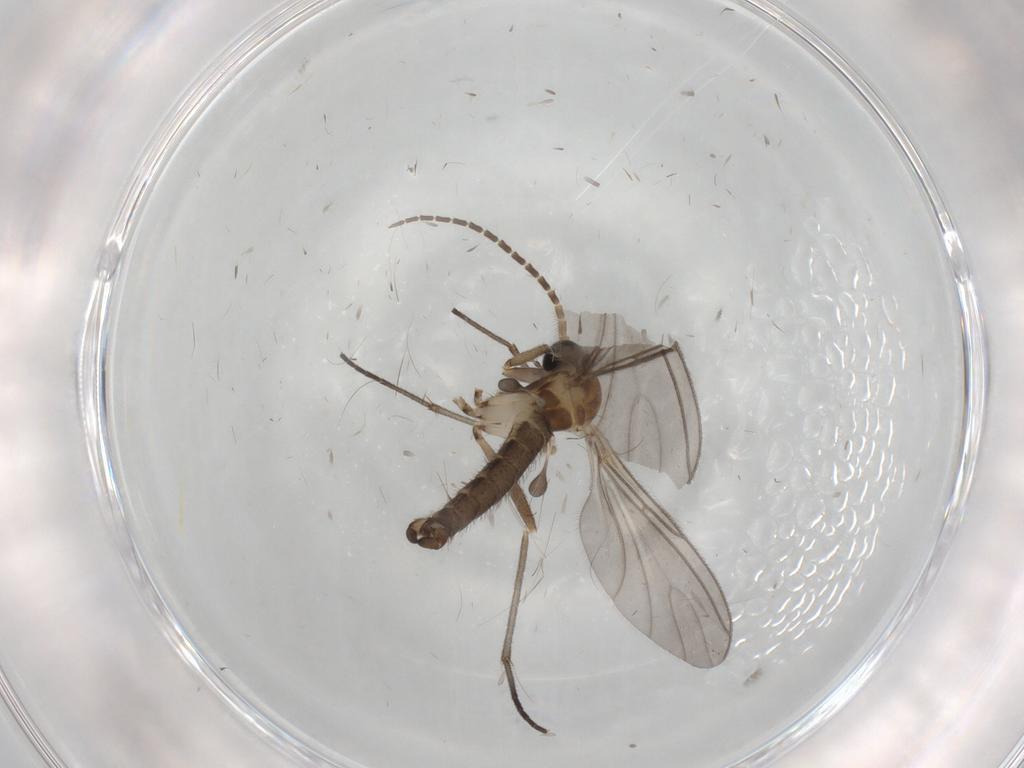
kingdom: Animalia
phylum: Arthropoda
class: Insecta
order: Diptera
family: Sciaridae
